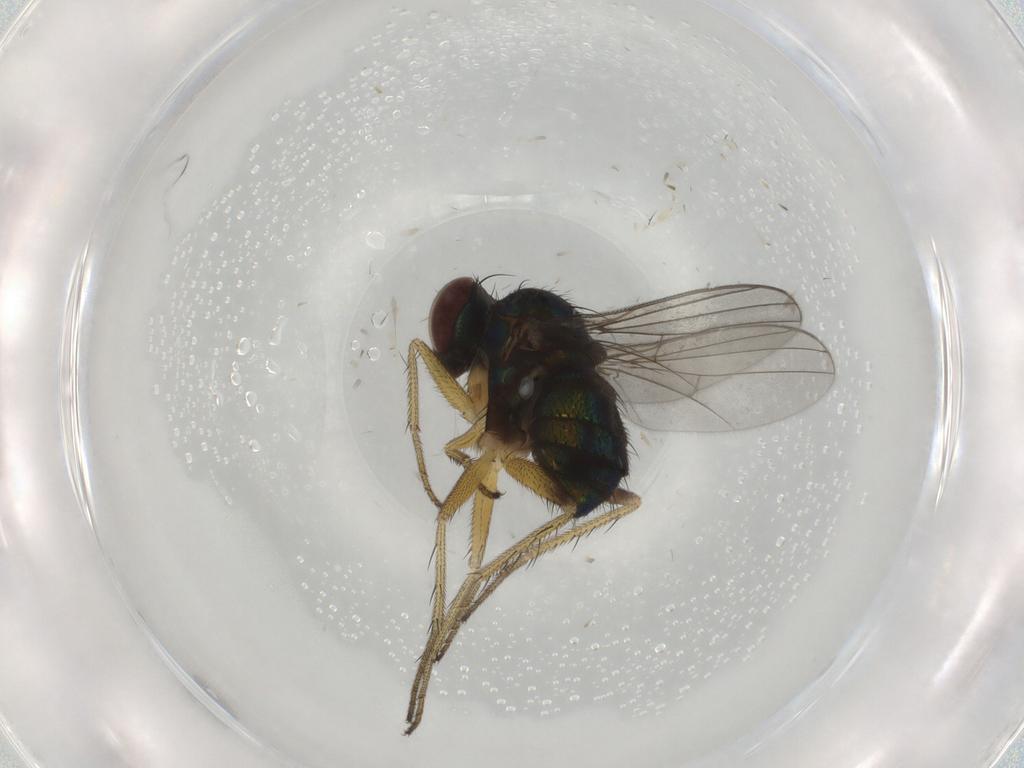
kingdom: Animalia
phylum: Arthropoda
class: Insecta
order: Diptera
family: Dolichopodidae
